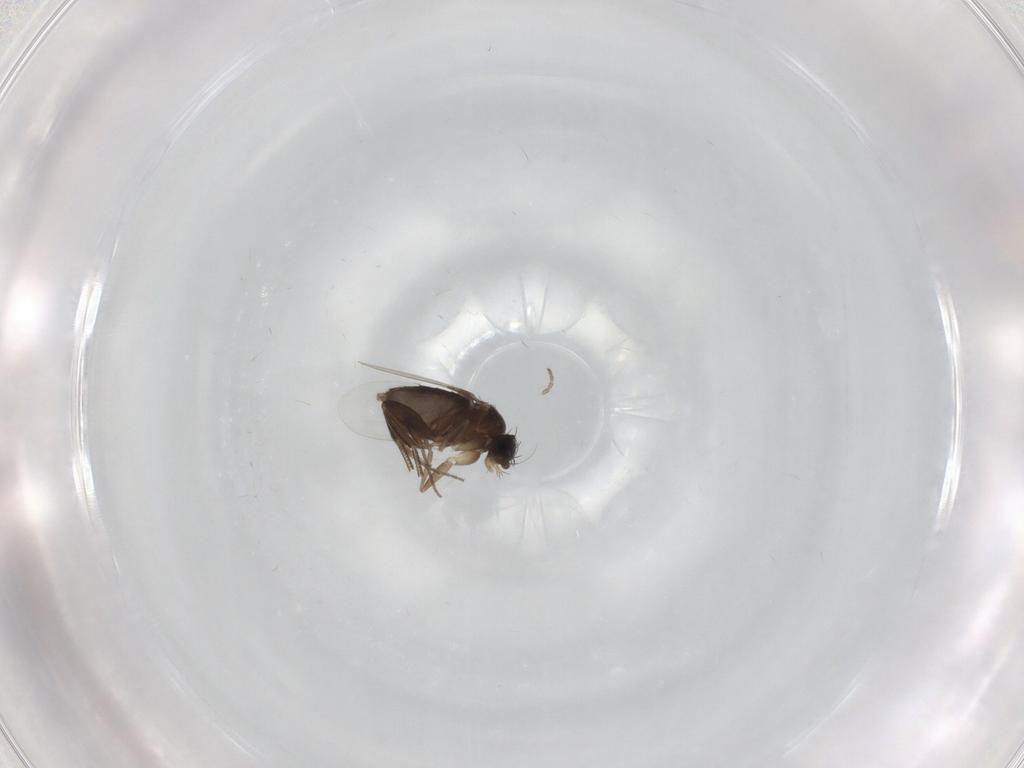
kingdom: Animalia
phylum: Arthropoda
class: Insecta
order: Diptera
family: Phoridae
